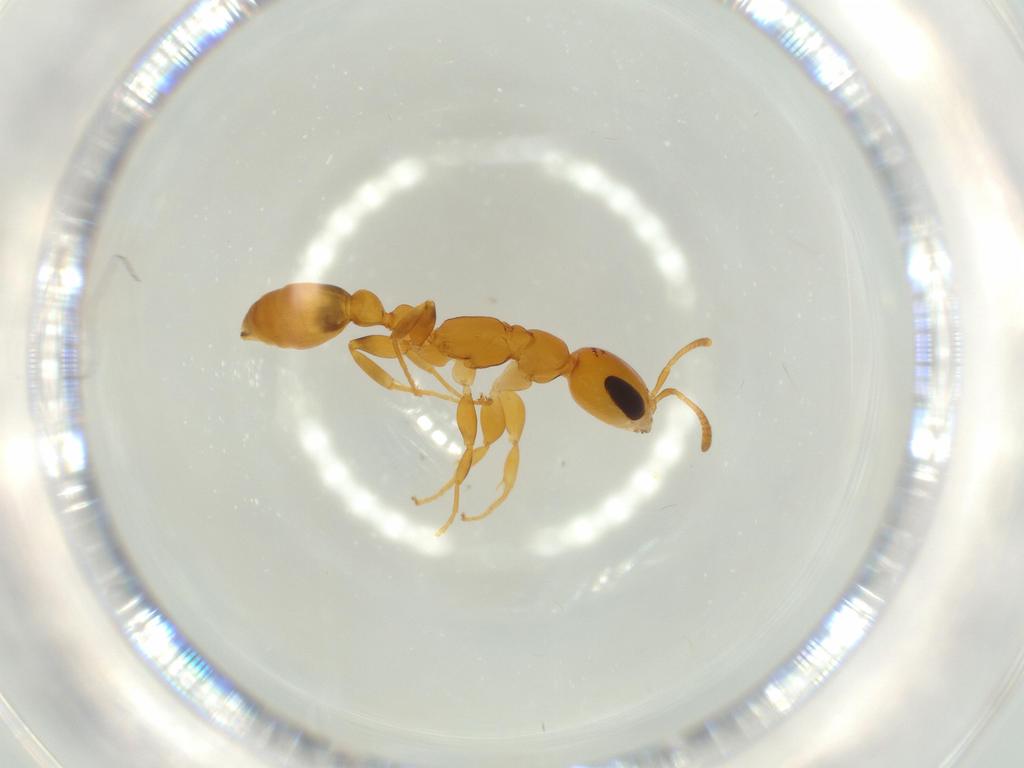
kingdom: Animalia
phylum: Arthropoda
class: Insecta
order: Hymenoptera
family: Formicidae
